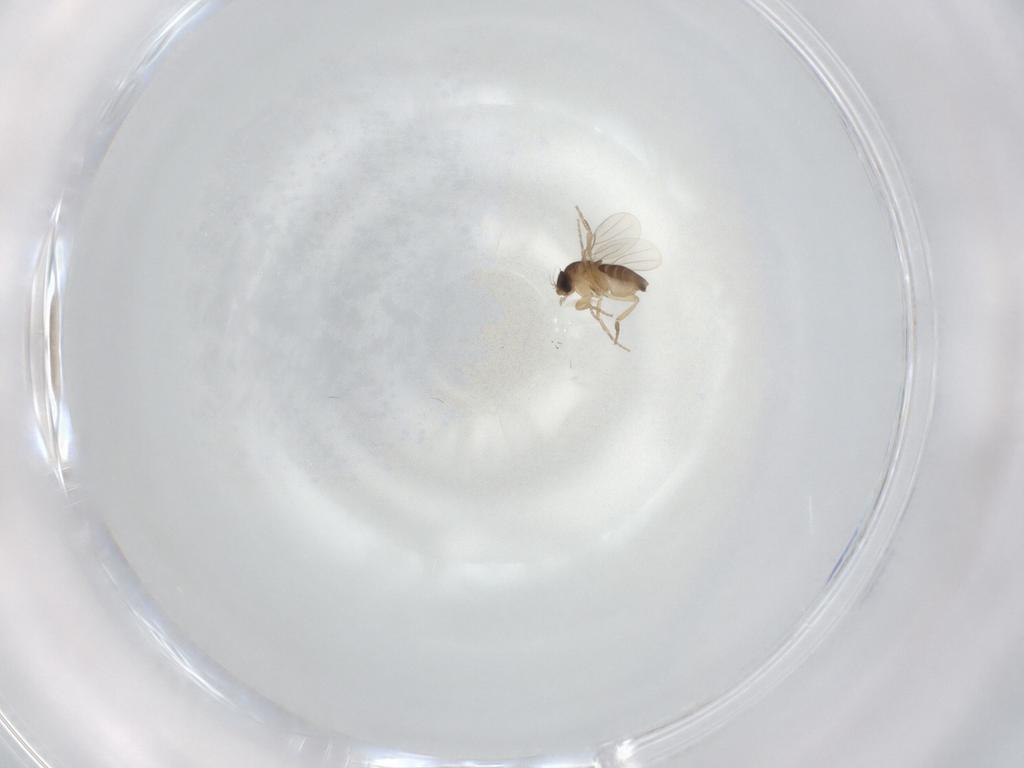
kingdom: Animalia
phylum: Arthropoda
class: Insecta
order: Diptera
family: Phoridae
